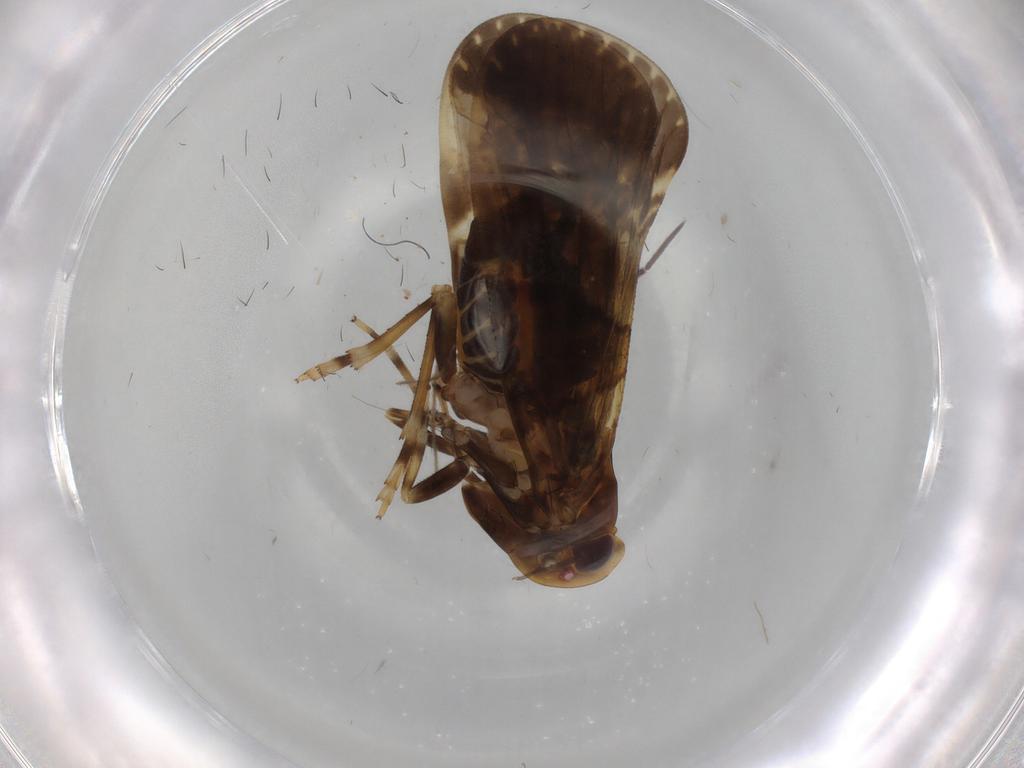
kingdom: Animalia
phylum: Arthropoda
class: Insecta
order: Hemiptera
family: Cixiidae
